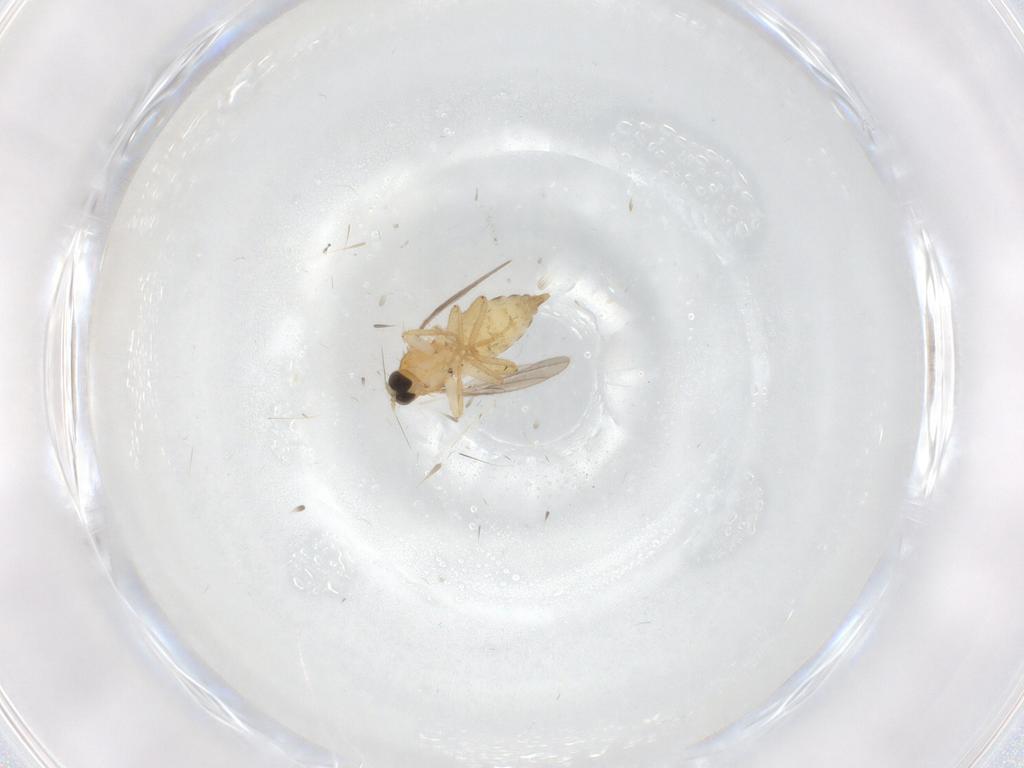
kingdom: Animalia
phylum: Arthropoda
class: Insecta
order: Diptera
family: Hybotidae
